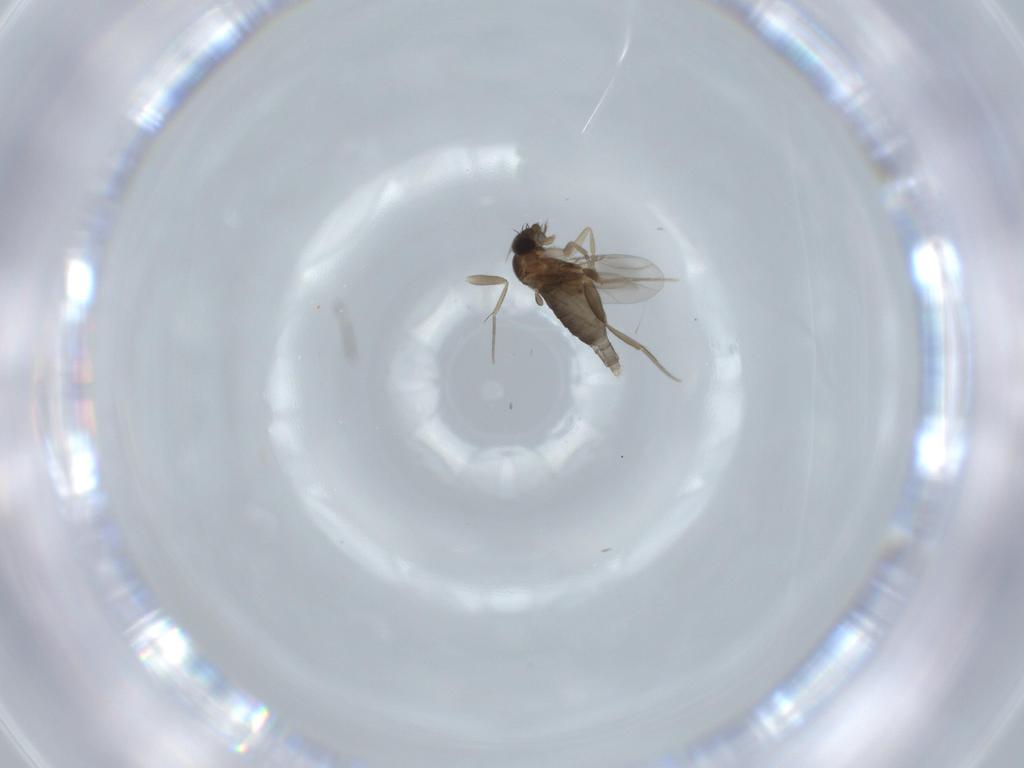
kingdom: Animalia
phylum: Arthropoda
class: Insecta
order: Diptera
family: Phoridae
